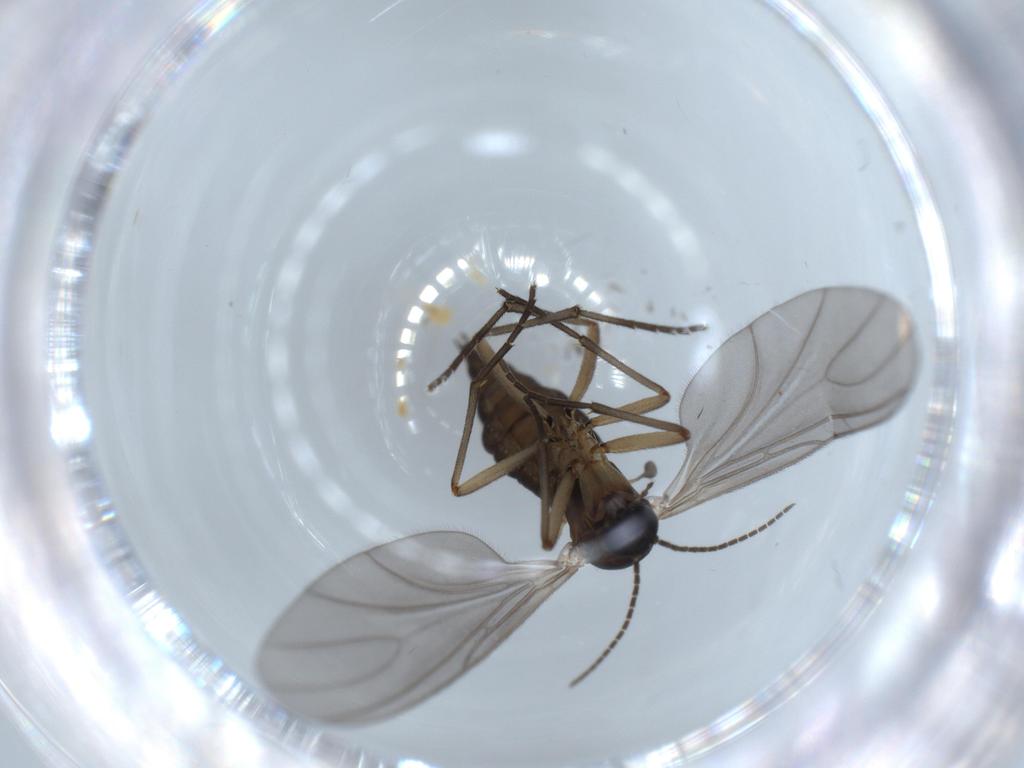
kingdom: Animalia
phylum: Arthropoda
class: Insecta
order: Diptera
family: Sciaridae
